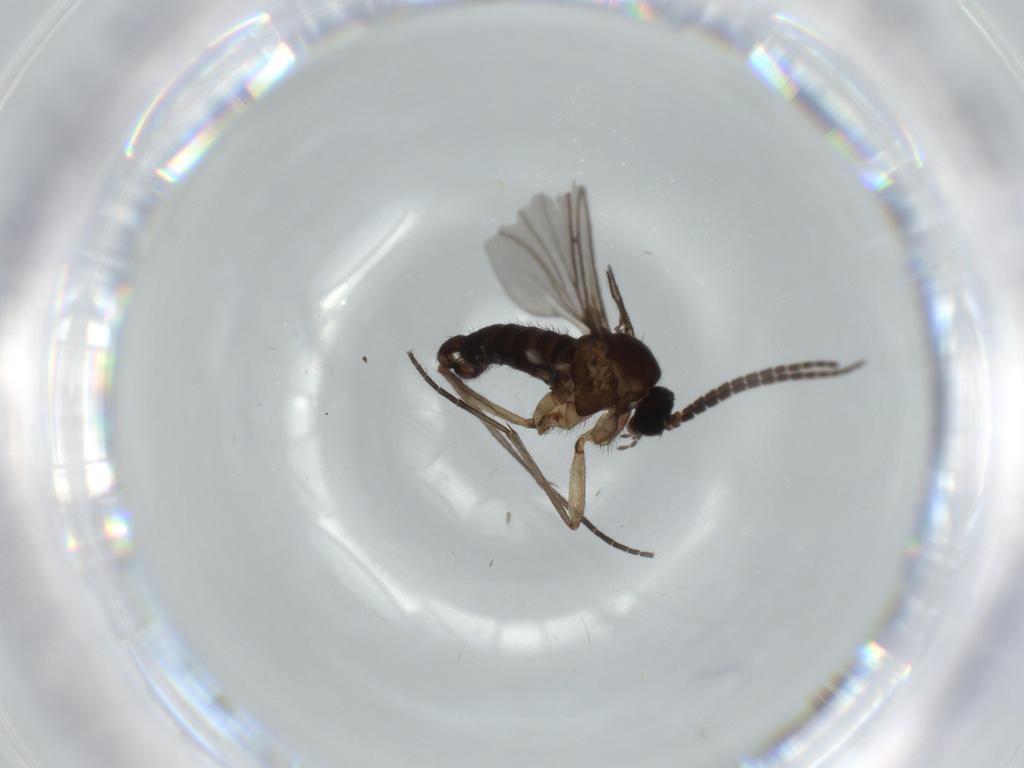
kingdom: Animalia
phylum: Arthropoda
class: Insecta
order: Diptera
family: Sciaridae
